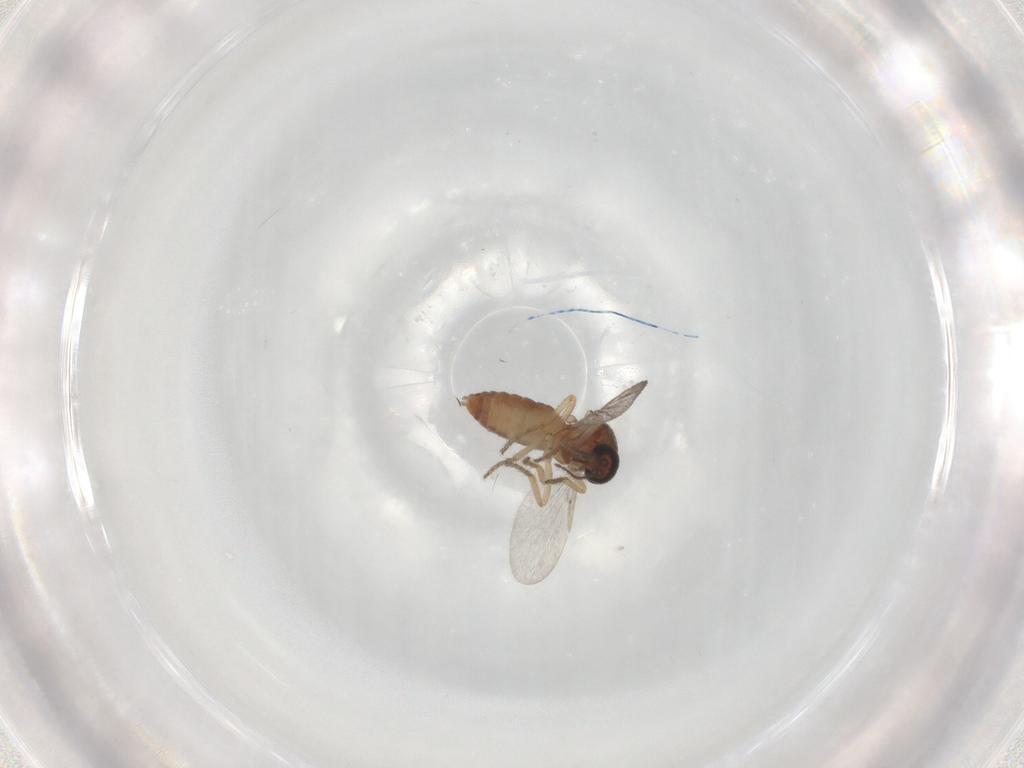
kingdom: Animalia
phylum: Arthropoda
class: Insecta
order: Diptera
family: Ceratopogonidae
